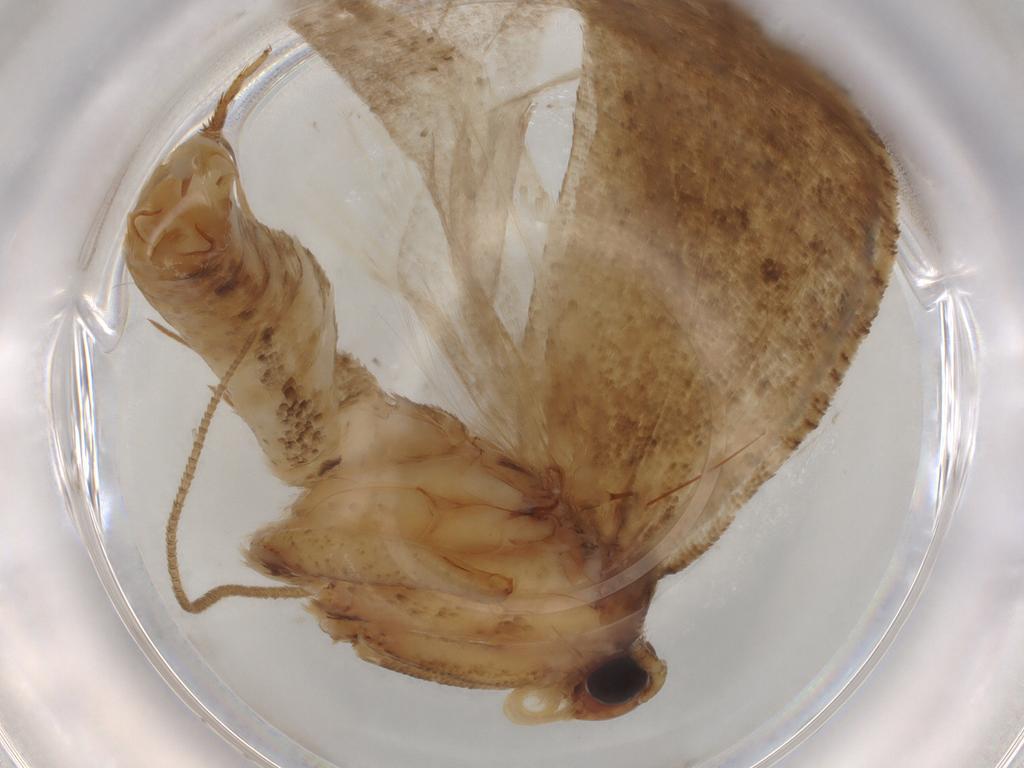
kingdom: Animalia
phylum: Arthropoda
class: Insecta
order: Lepidoptera
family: Depressariidae
